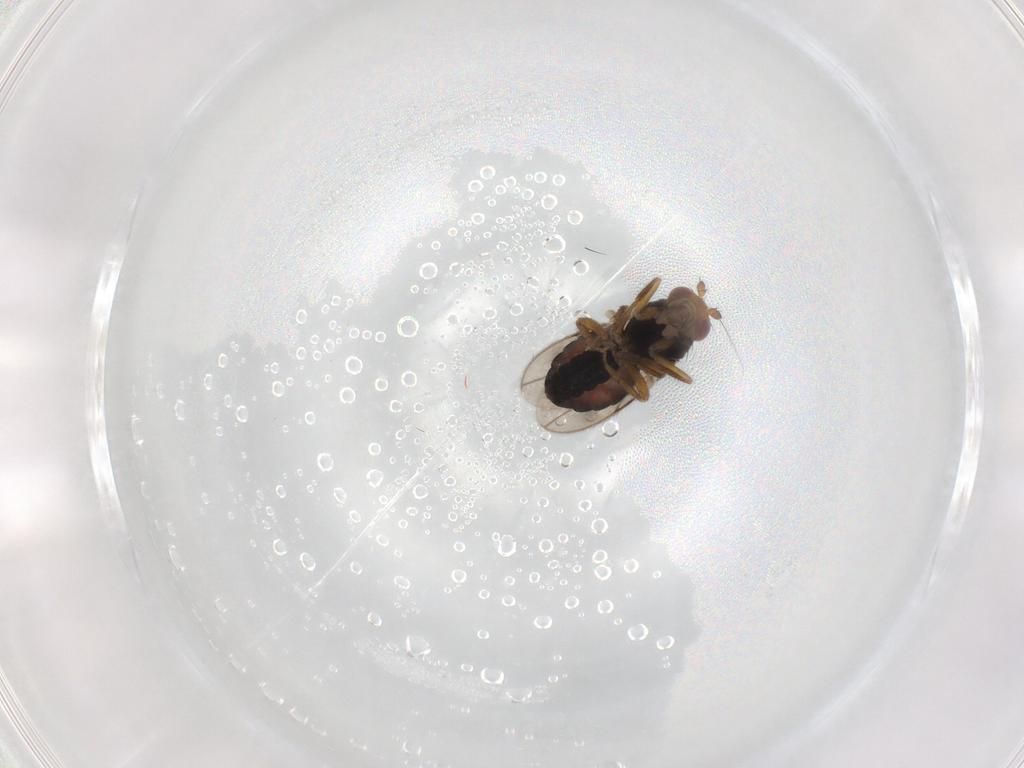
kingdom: Animalia
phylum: Arthropoda
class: Insecta
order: Diptera
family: Sphaeroceridae
